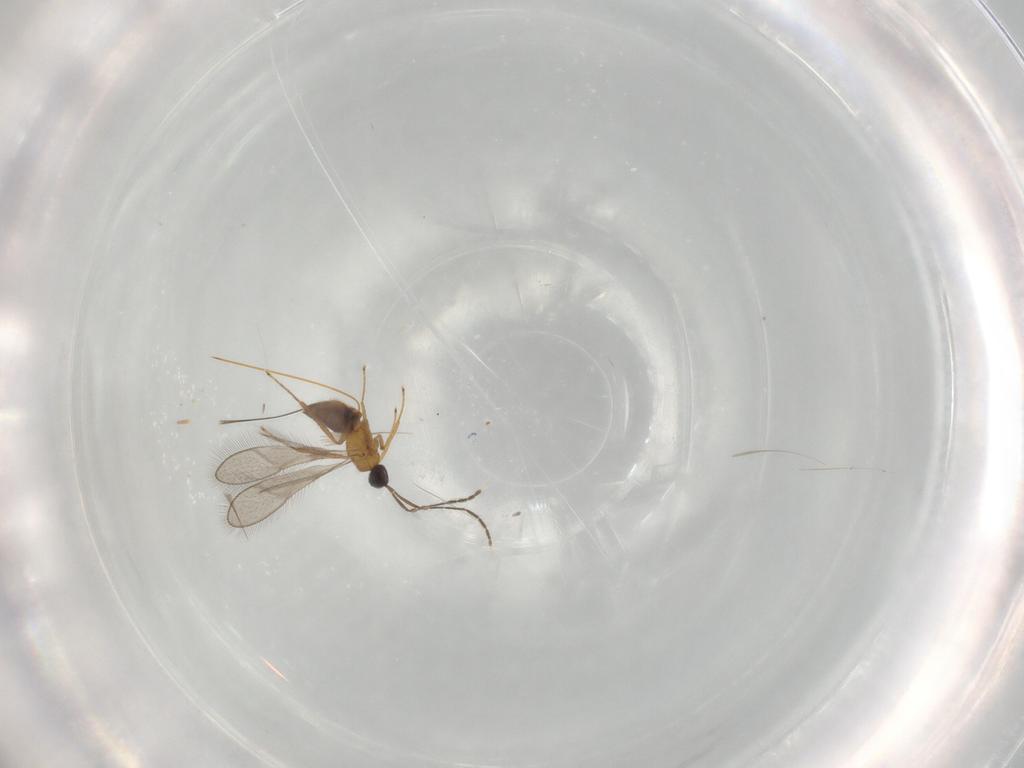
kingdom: Animalia
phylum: Arthropoda
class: Insecta
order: Hymenoptera
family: Mymaridae
